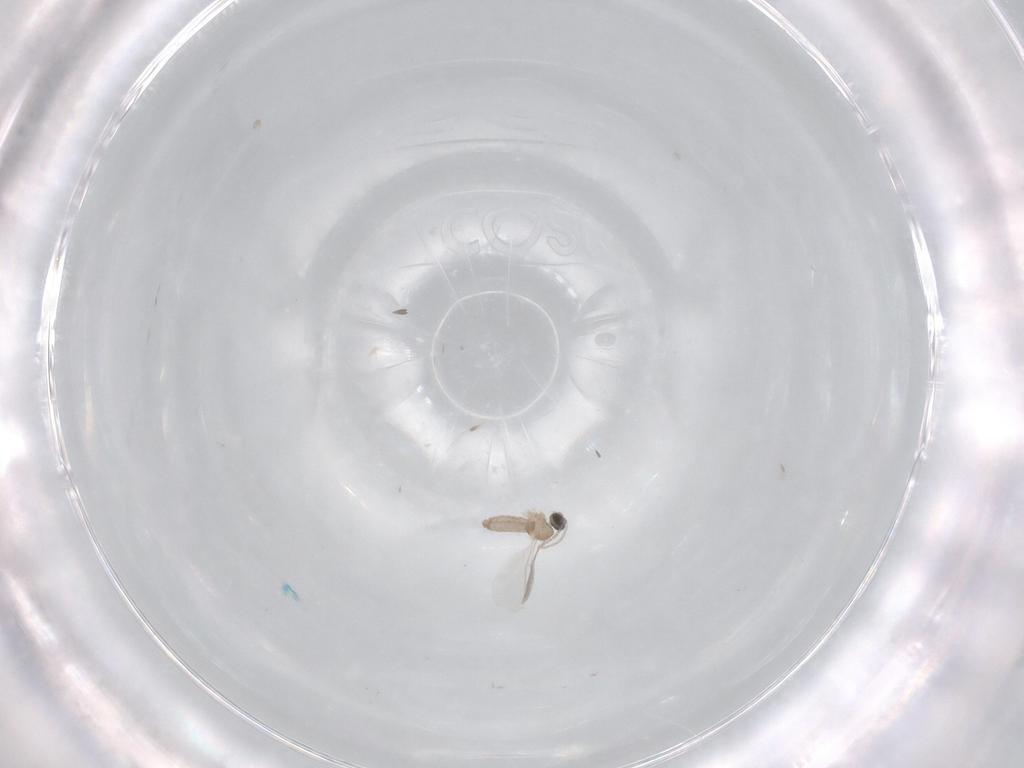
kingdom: Animalia
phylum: Arthropoda
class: Insecta
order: Diptera
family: Cecidomyiidae
